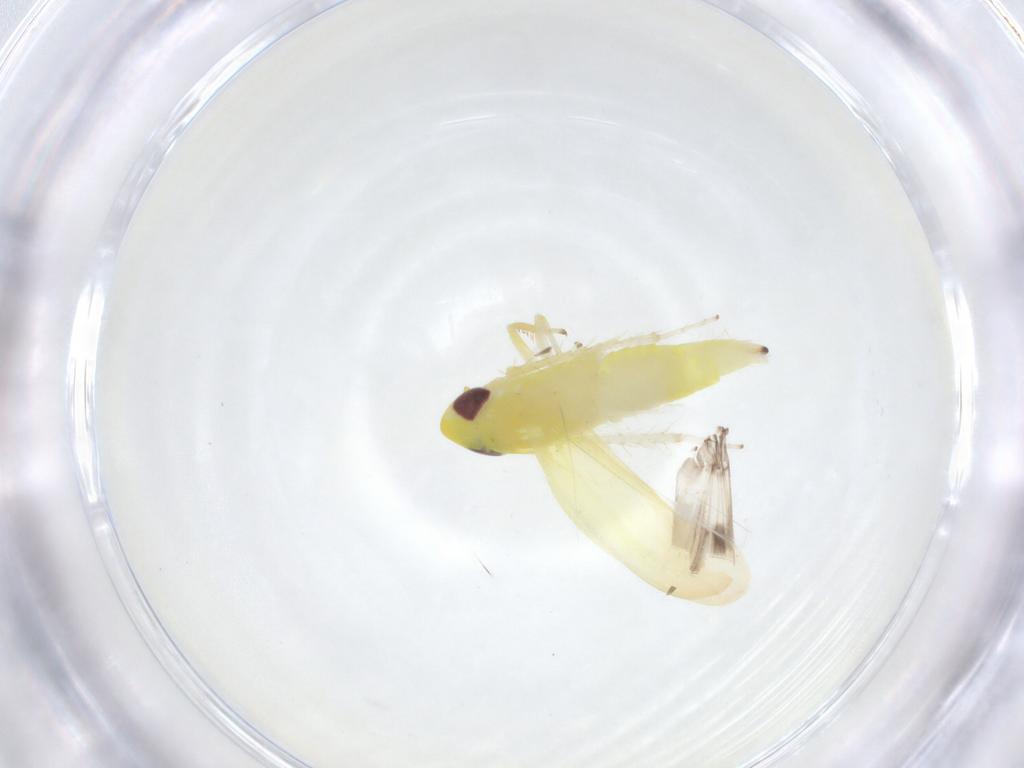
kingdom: Animalia
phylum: Arthropoda
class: Insecta
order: Hemiptera
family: Cicadellidae
